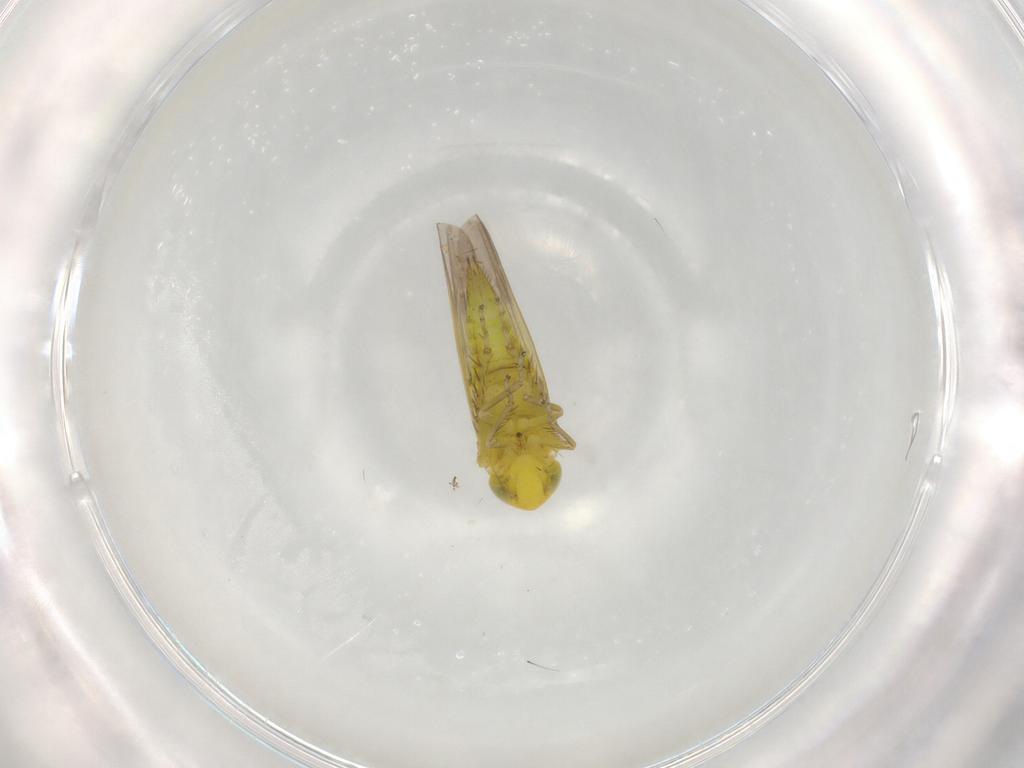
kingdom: Animalia
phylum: Arthropoda
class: Insecta
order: Hemiptera
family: Cicadellidae
